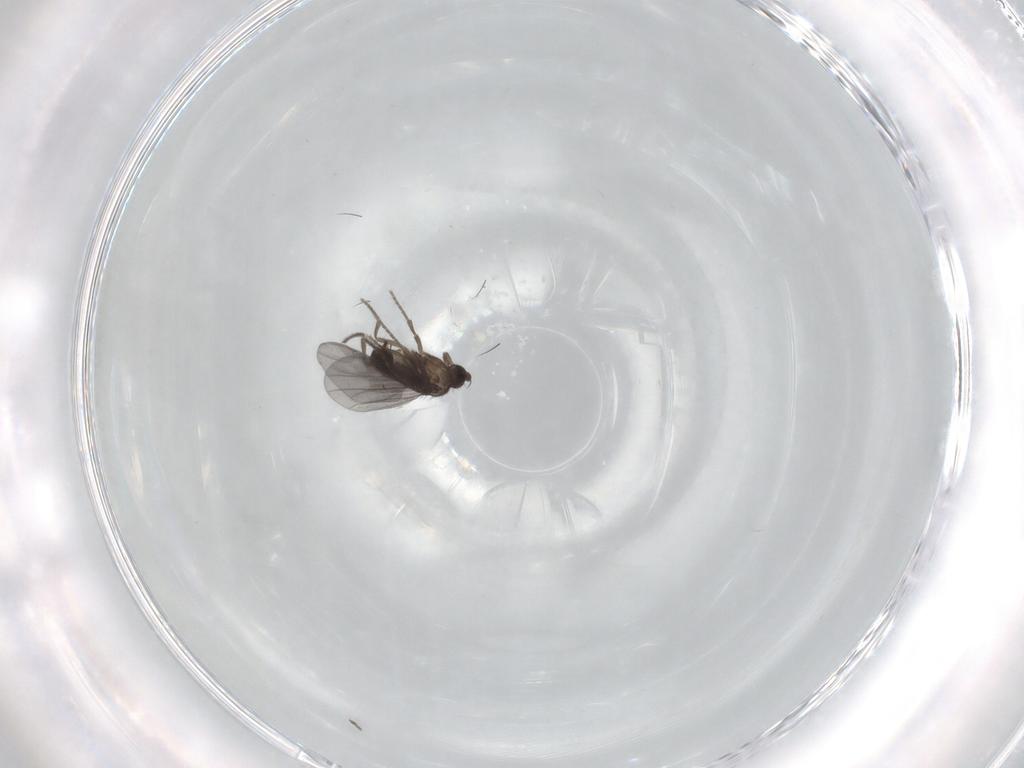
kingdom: Animalia
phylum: Arthropoda
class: Insecta
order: Diptera
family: Phoridae
